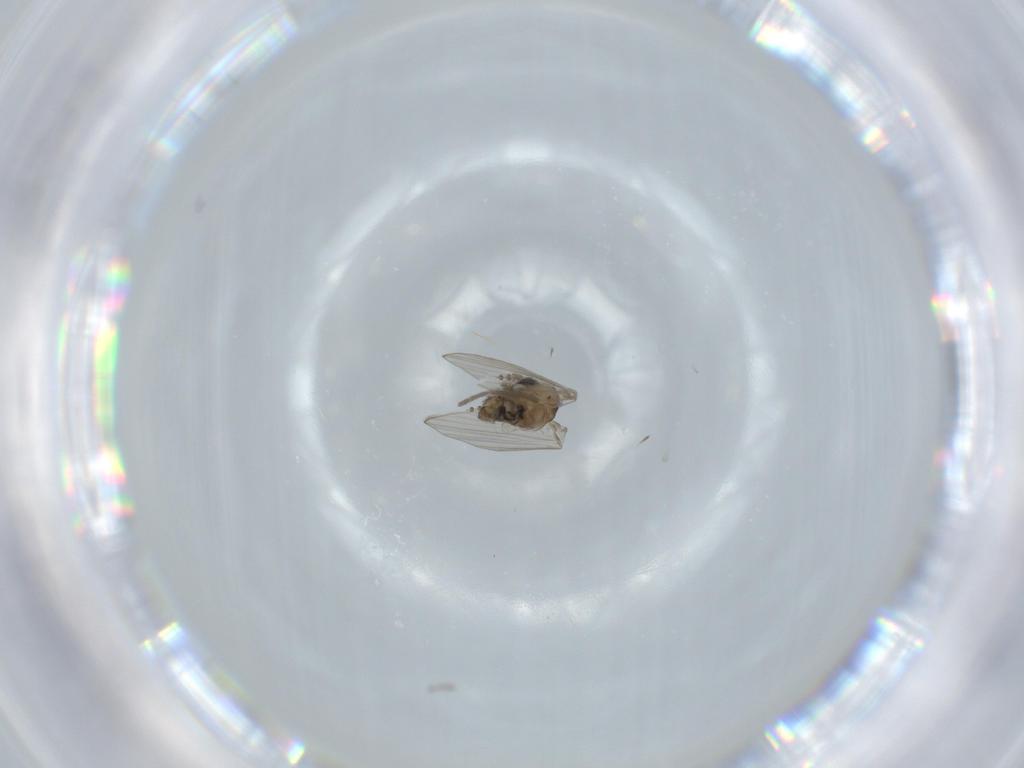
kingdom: Animalia
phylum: Arthropoda
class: Insecta
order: Diptera
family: Psychodidae
